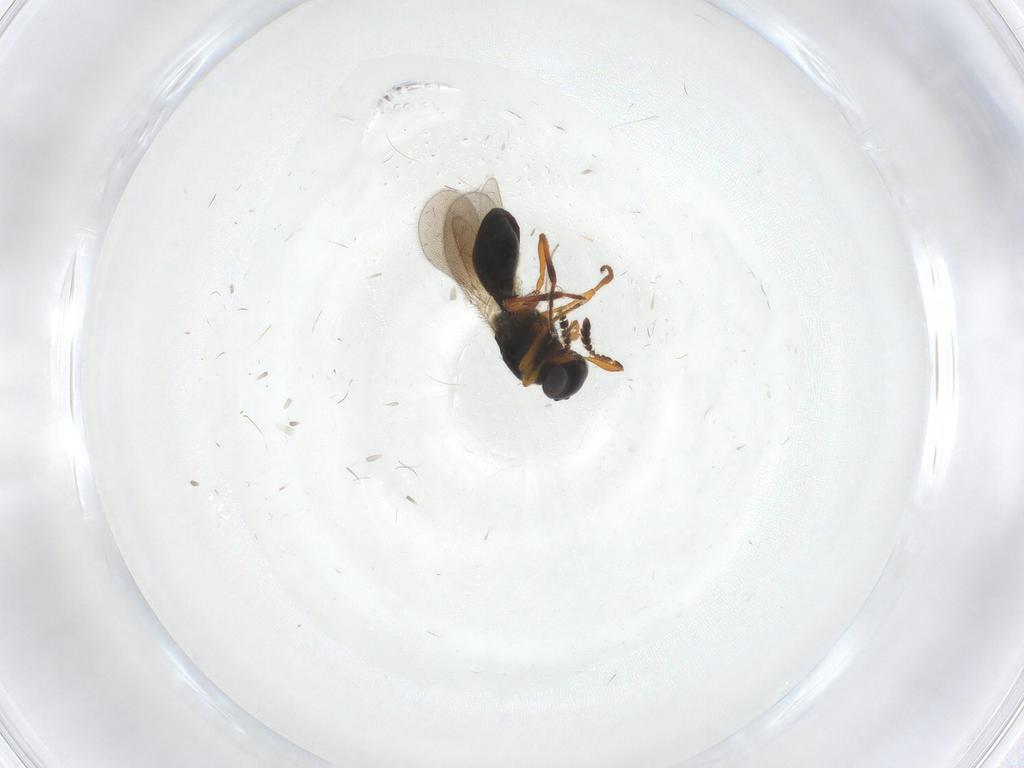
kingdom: Animalia
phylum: Arthropoda
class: Insecta
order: Hymenoptera
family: Platygastridae
